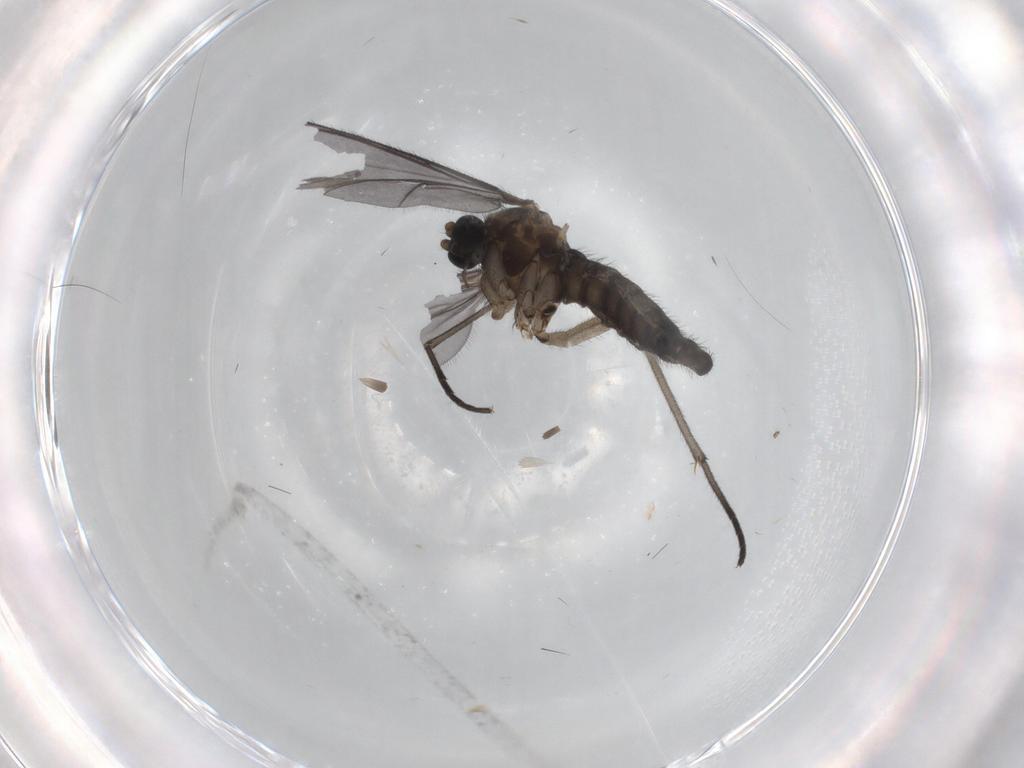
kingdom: Animalia
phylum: Arthropoda
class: Insecta
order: Diptera
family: Sciaridae
